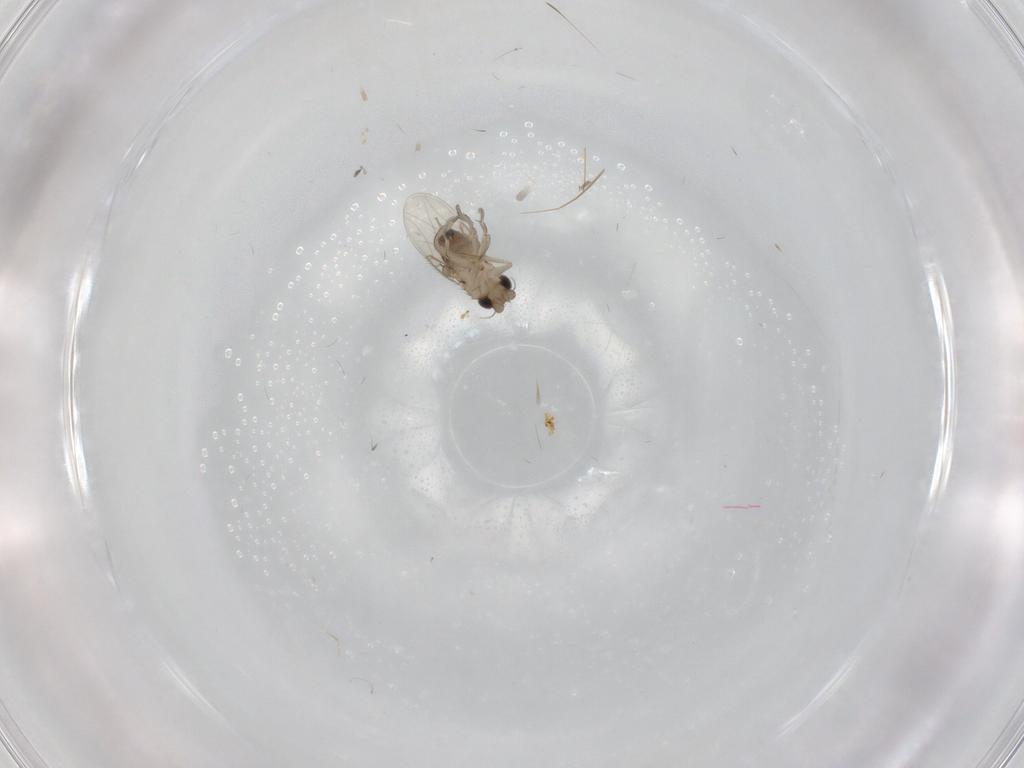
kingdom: Animalia
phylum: Arthropoda
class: Insecta
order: Diptera
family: Phoridae
